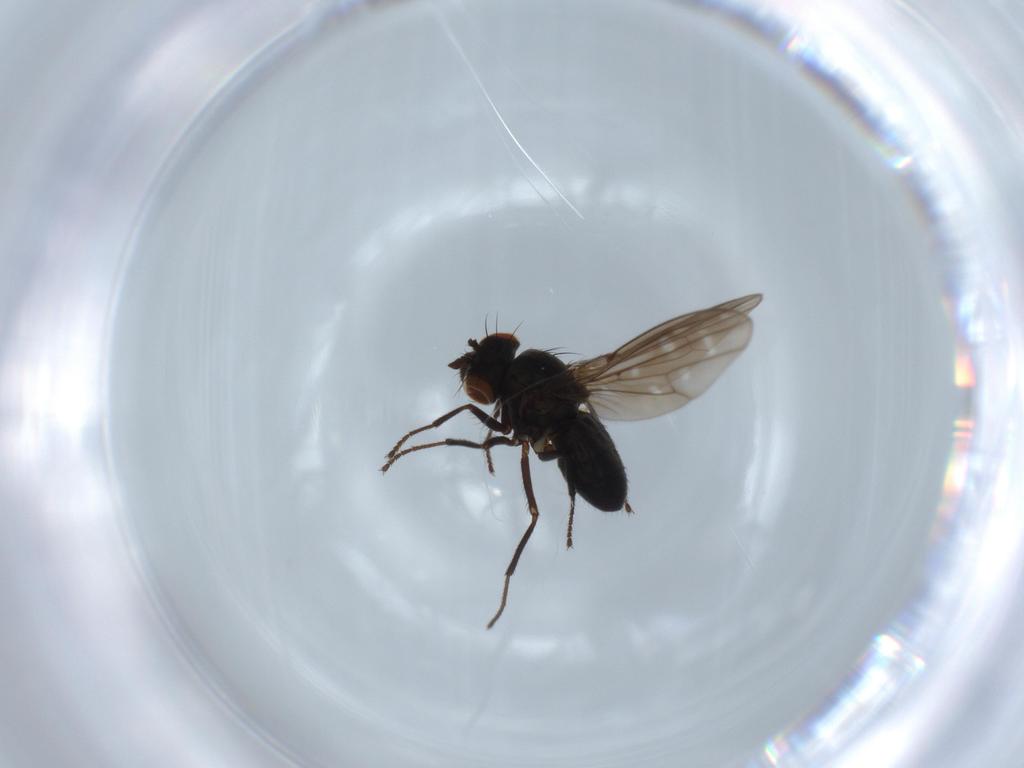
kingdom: Animalia
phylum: Arthropoda
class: Insecta
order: Diptera
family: Ephydridae
